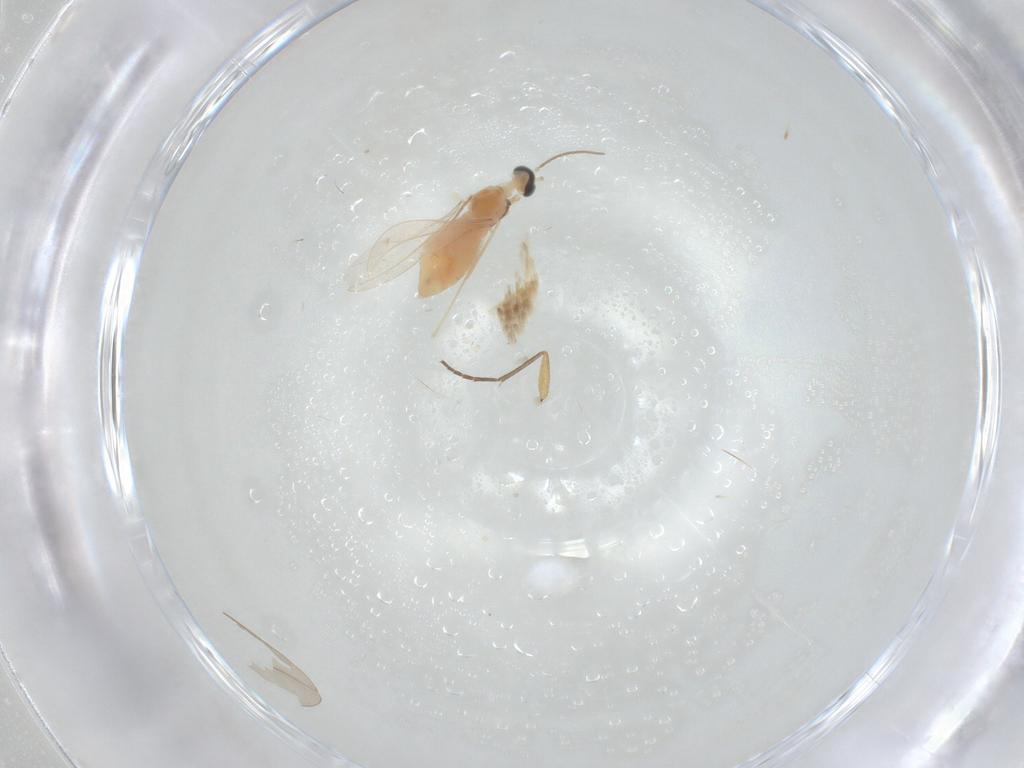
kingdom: Animalia
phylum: Arthropoda
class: Insecta
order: Diptera
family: Cecidomyiidae
